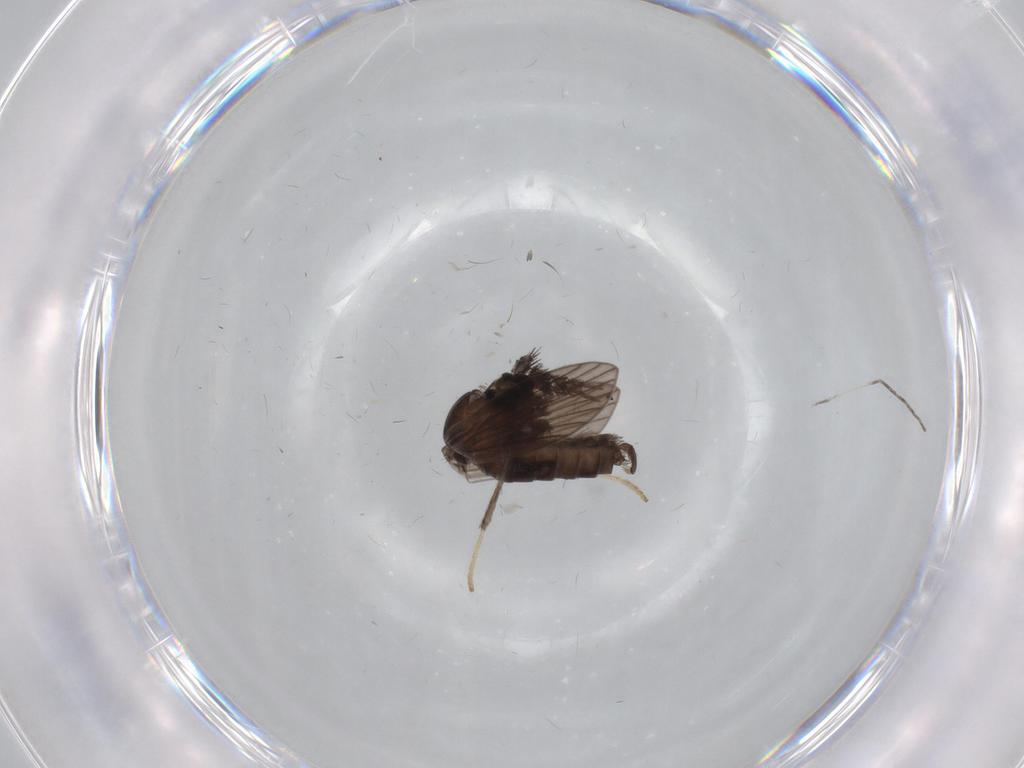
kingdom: Animalia
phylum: Arthropoda
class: Insecta
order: Diptera
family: Psychodidae
